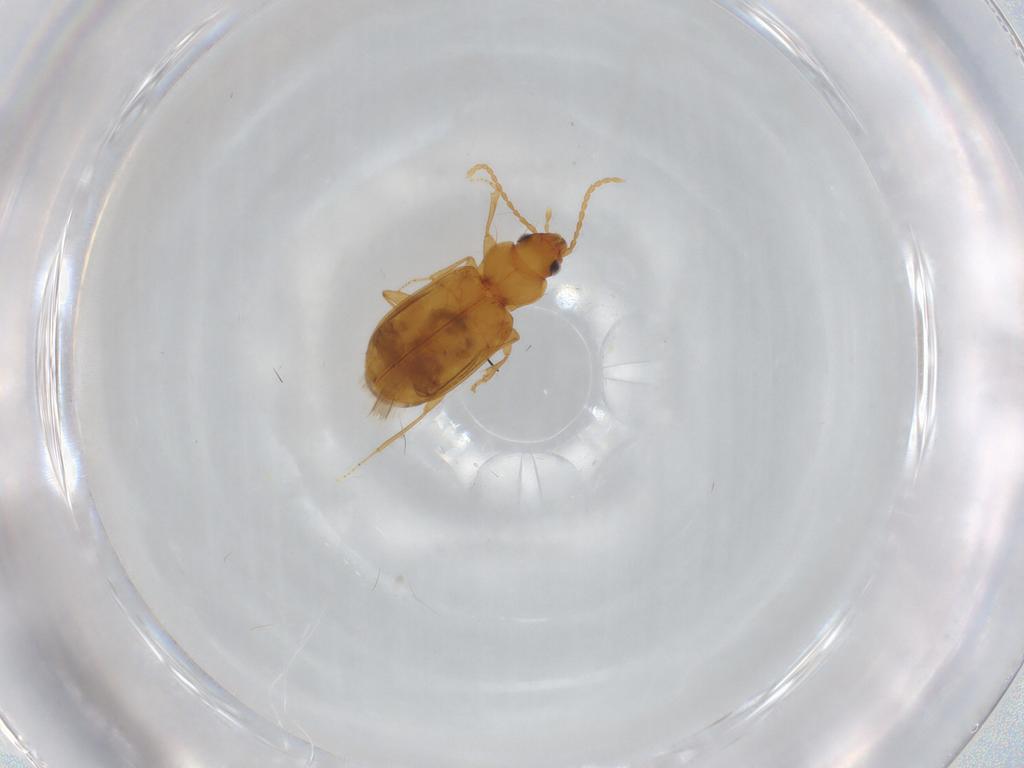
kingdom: Animalia
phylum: Arthropoda
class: Insecta
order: Coleoptera
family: Carabidae
